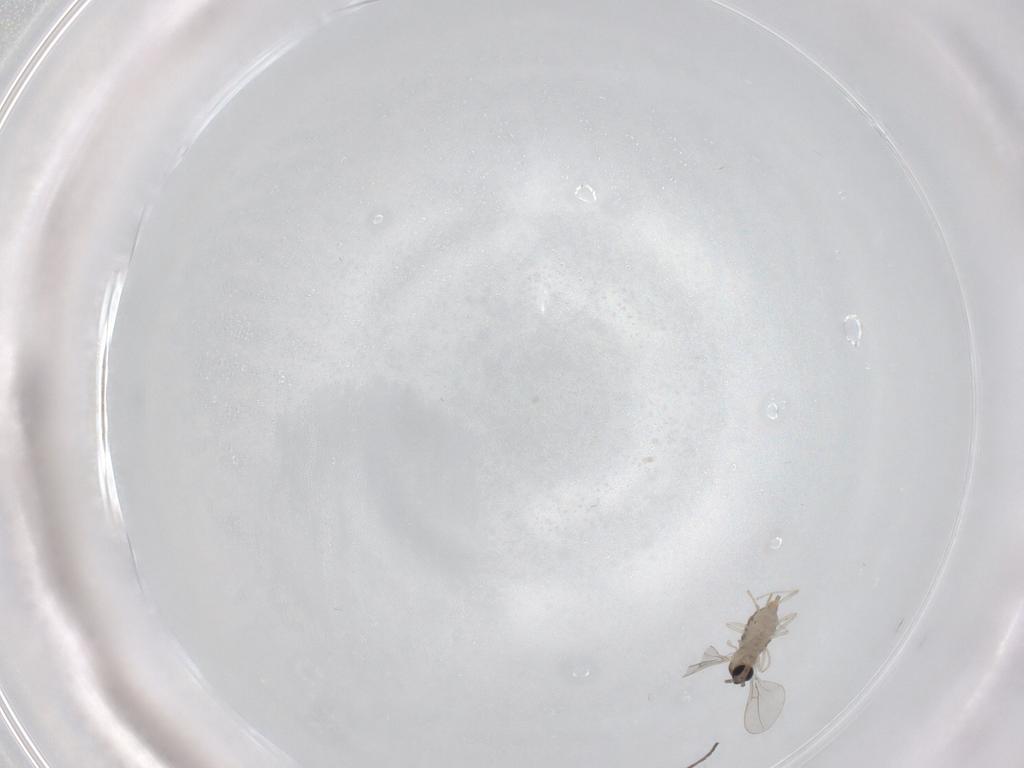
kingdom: Animalia
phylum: Arthropoda
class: Insecta
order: Diptera
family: Cecidomyiidae
